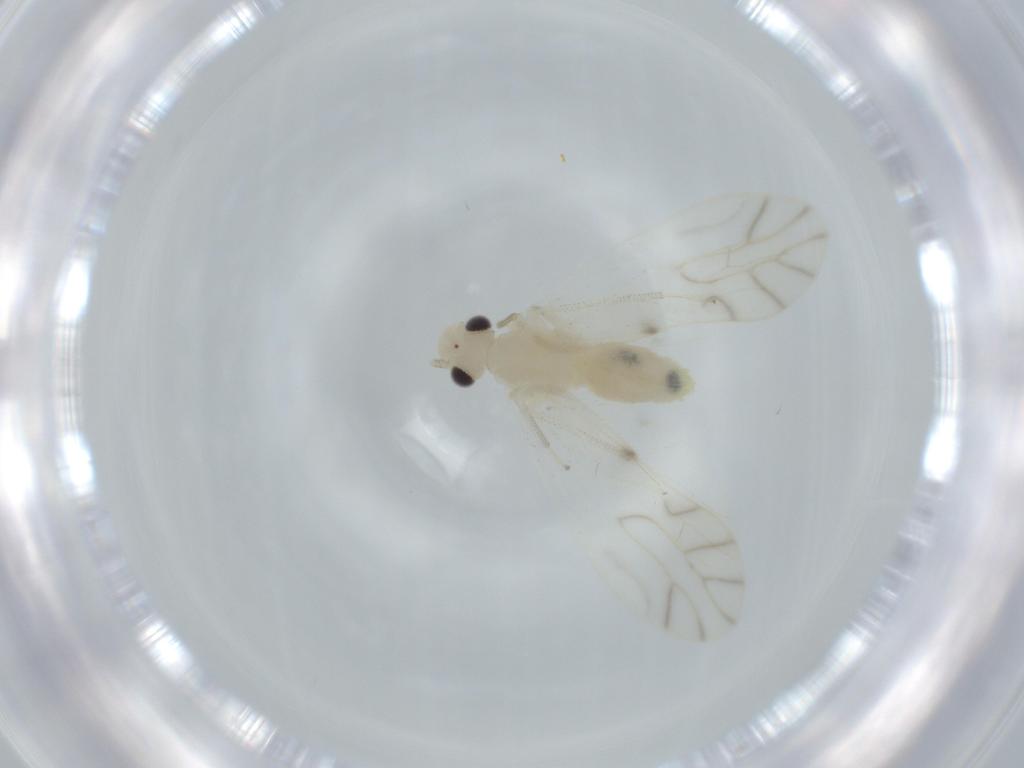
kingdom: Animalia
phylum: Arthropoda
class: Insecta
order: Psocodea
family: Caeciliusidae
